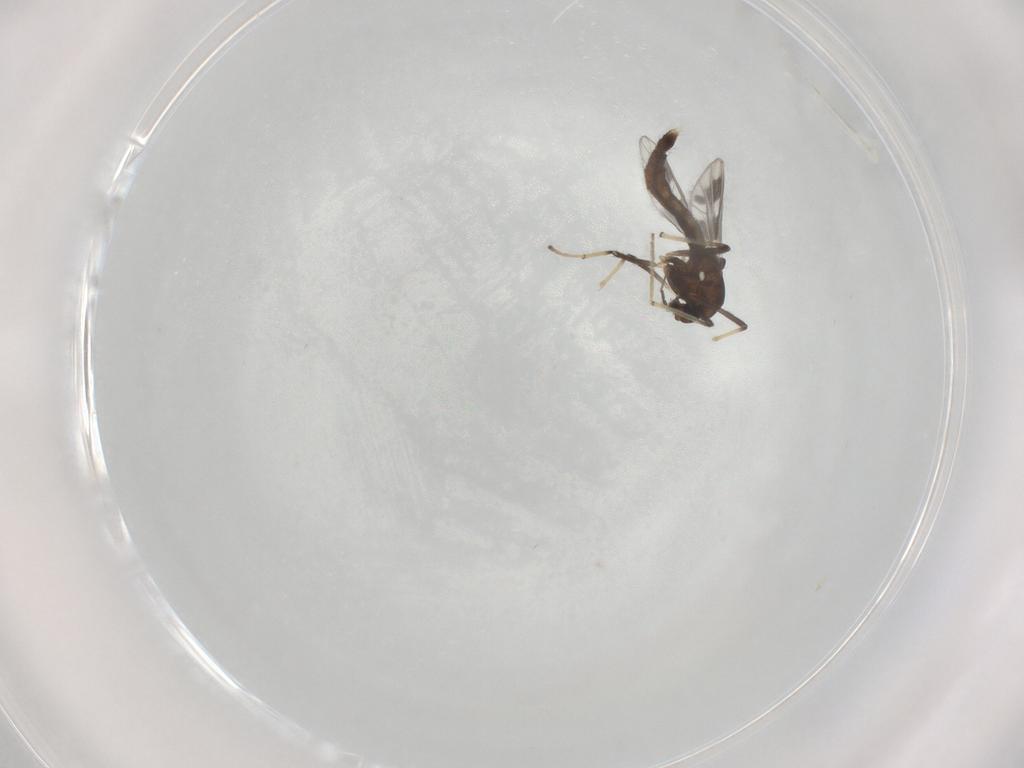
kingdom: Animalia
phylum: Arthropoda
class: Insecta
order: Diptera
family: Chironomidae
